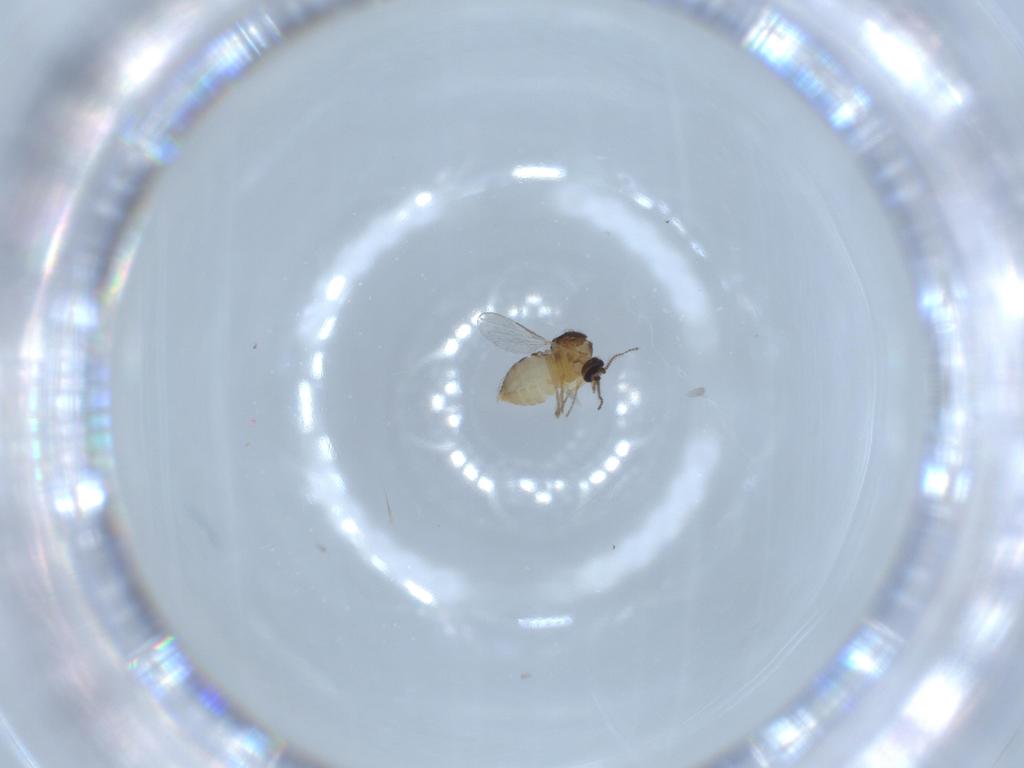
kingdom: Animalia
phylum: Arthropoda
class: Insecta
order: Diptera
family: Ceratopogonidae
